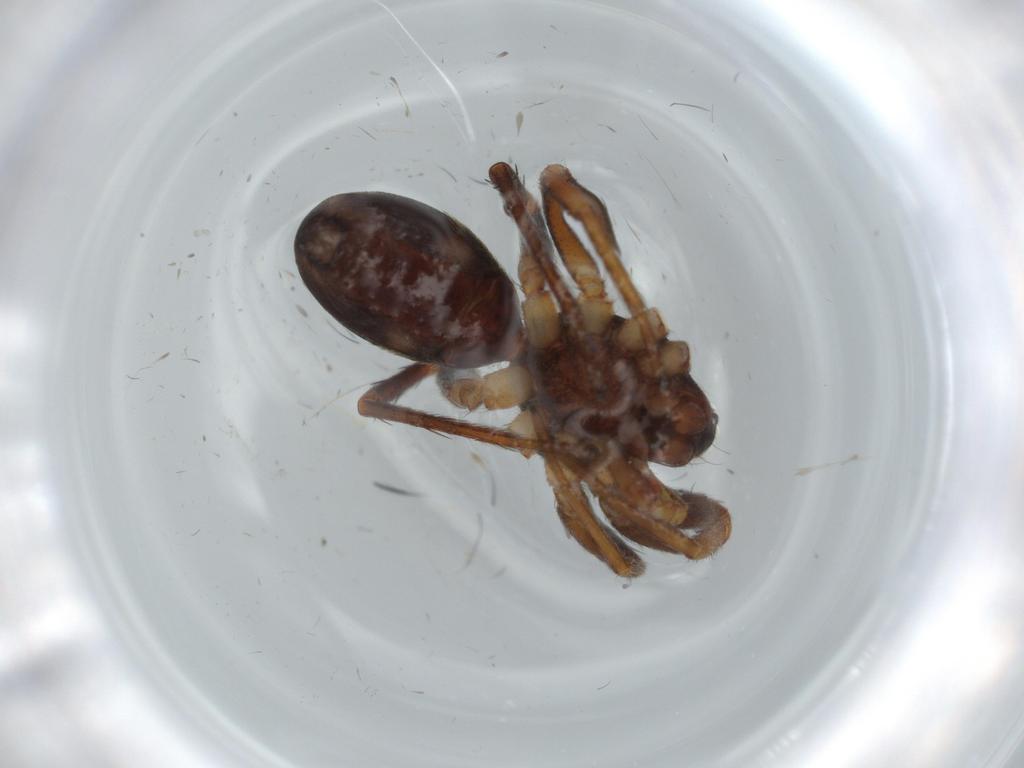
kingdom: Animalia
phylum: Arthropoda
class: Arachnida
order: Araneae
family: Corinnidae
